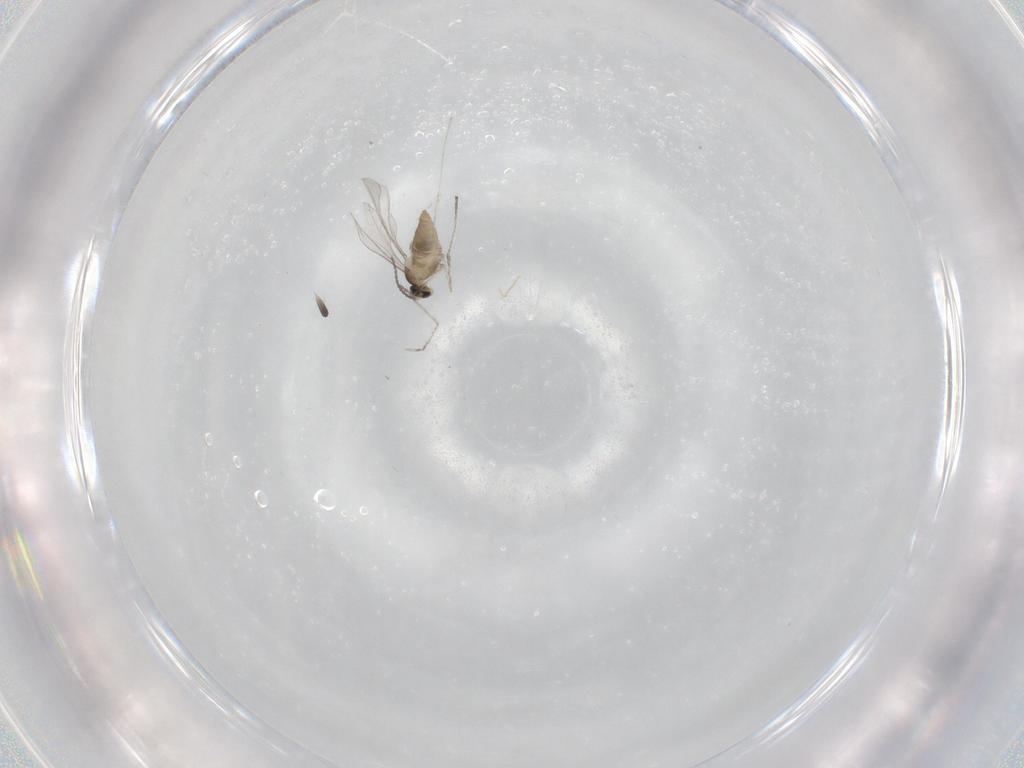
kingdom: Animalia
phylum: Arthropoda
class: Insecta
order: Diptera
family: Cecidomyiidae
